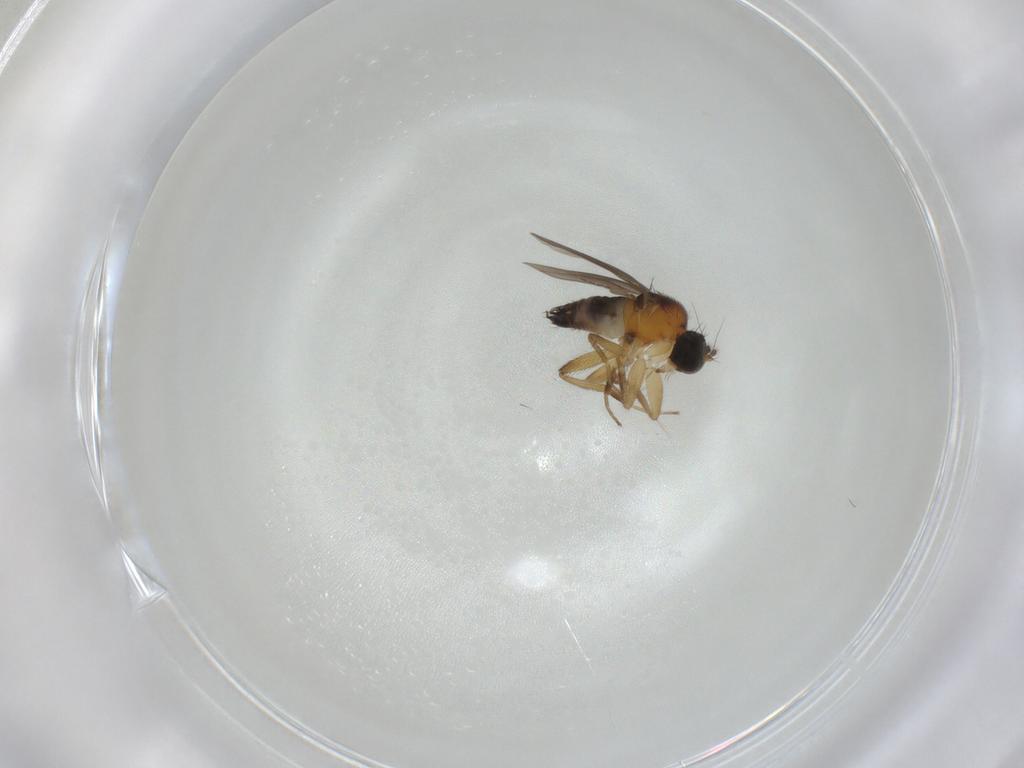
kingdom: Animalia
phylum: Arthropoda
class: Insecta
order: Diptera
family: Hybotidae
